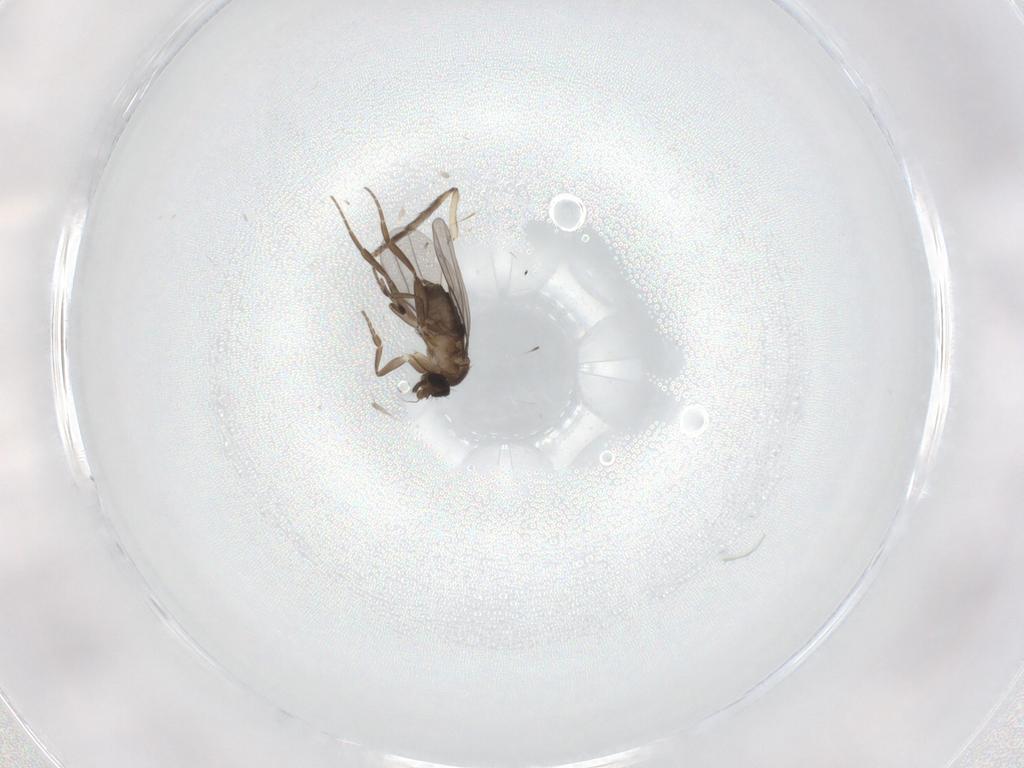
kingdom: Animalia
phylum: Arthropoda
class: Insecta
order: Diptera
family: Psychodidae
